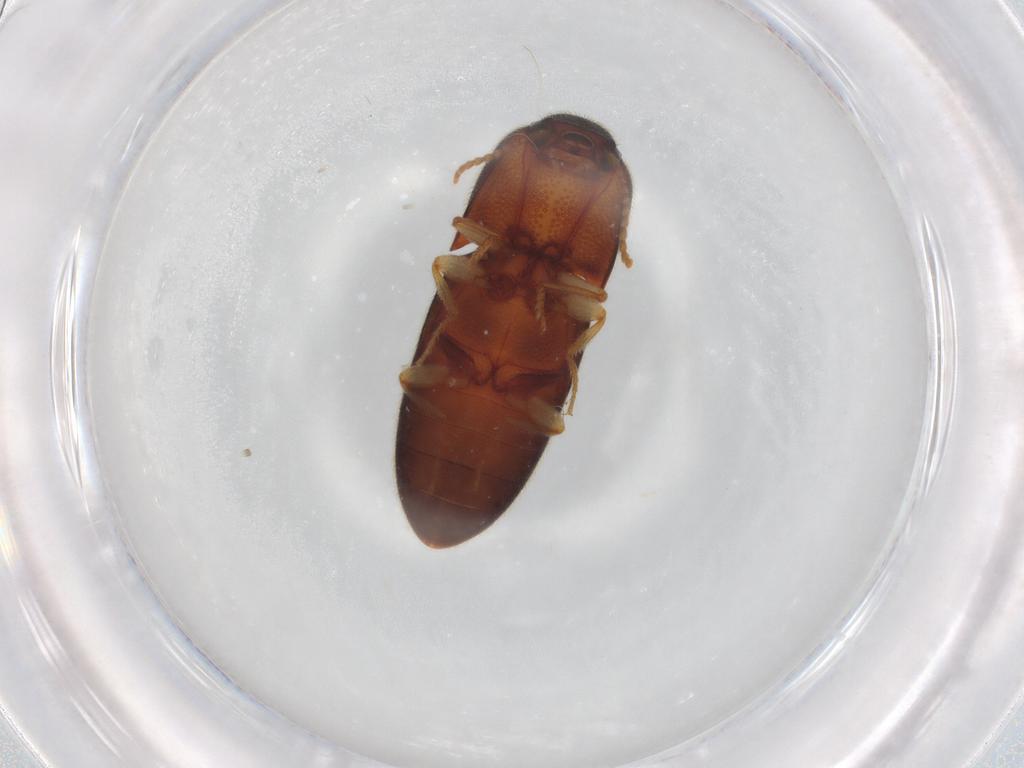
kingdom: Animalia
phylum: Arthropoda
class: Insecta
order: Coleoptera
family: Elateridae
